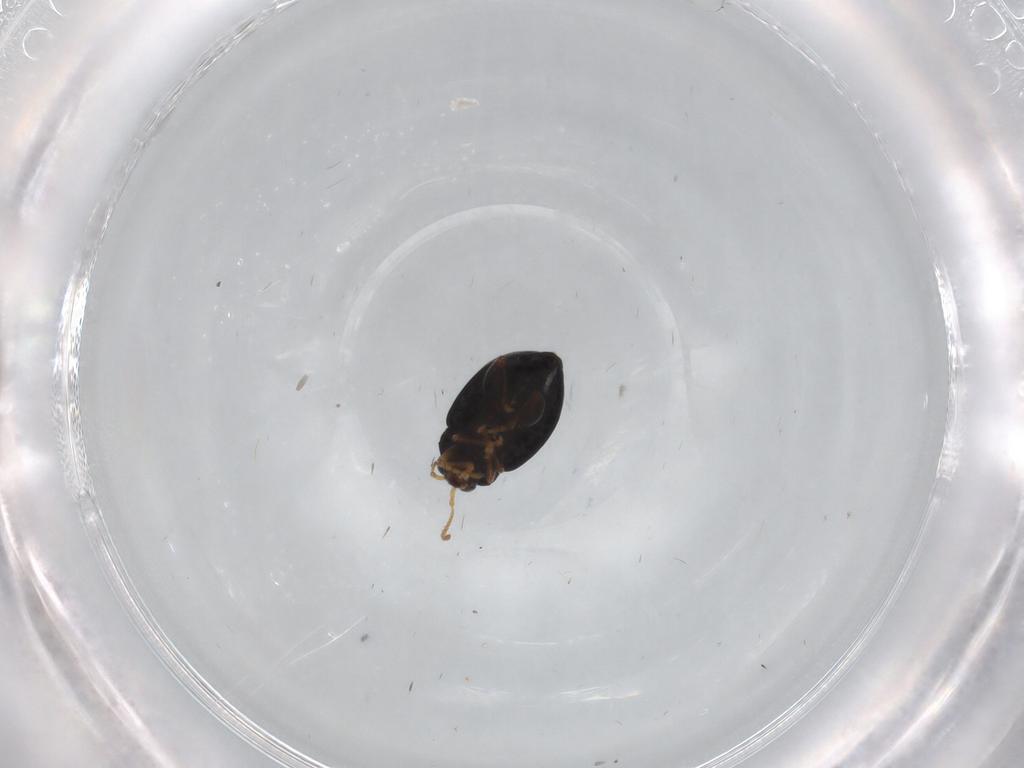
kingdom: Animalia
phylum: Arthropoda
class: Insecta
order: Coleoptera
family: Chrysomelidae
